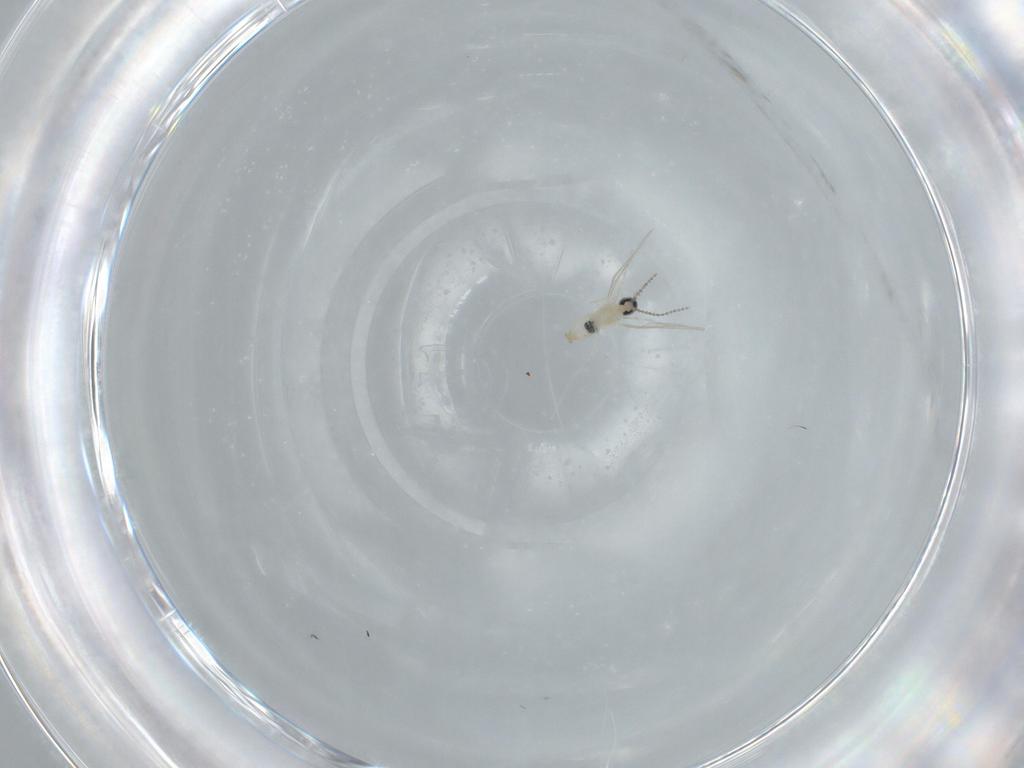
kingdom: Animalia
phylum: Arthropoda
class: Insecta
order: Diptera
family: Cecidomyiidae
